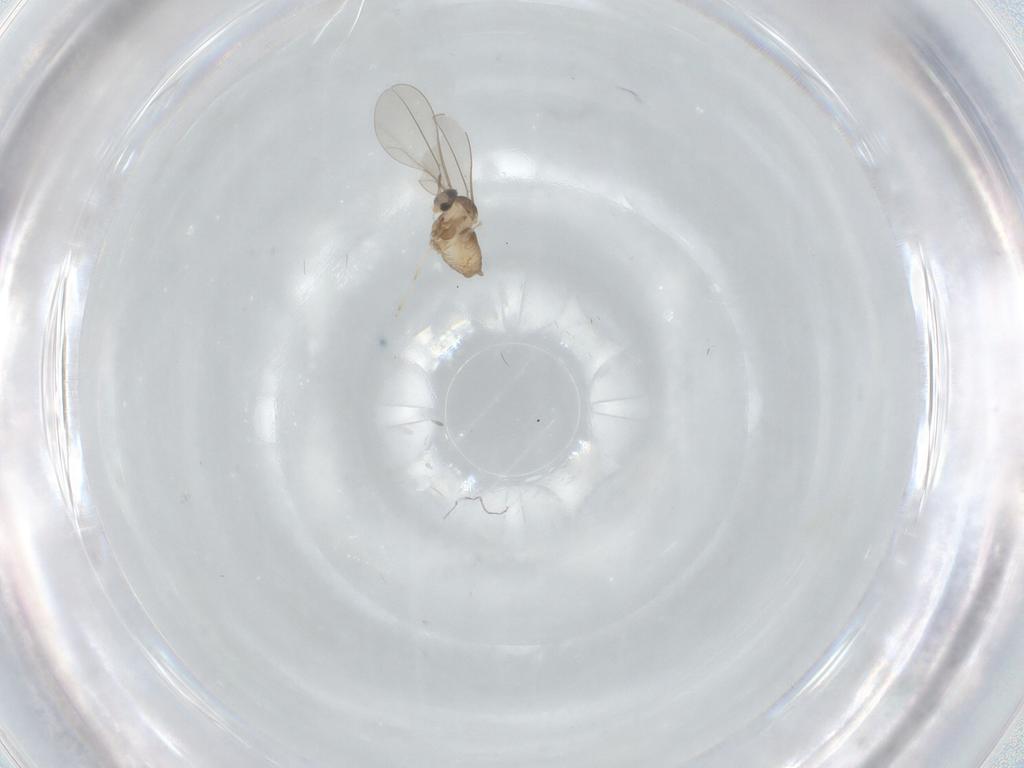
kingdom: Animalia
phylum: Arthropoda
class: Insecta
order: Diptera
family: Cecidomyiidae
